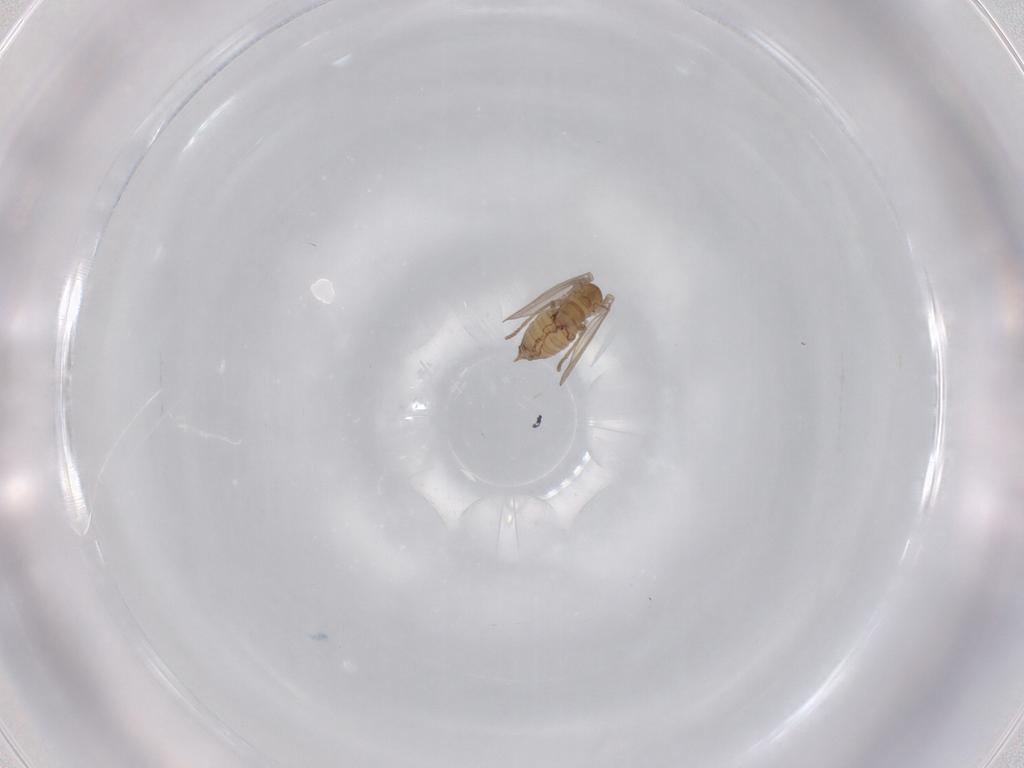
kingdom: Animalia
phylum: Arthropoda
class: Insecta
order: Diptera
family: Psychodidae
